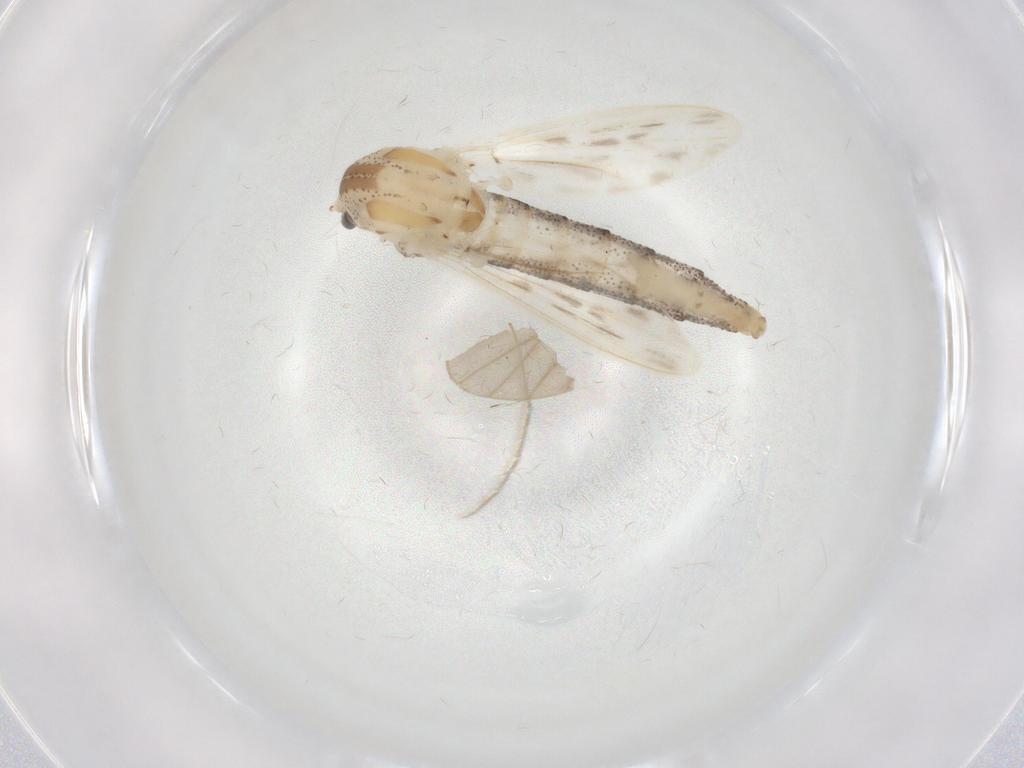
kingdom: Animalia
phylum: Arthropoda
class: Insecta
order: Diptera
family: Chaoboridae
